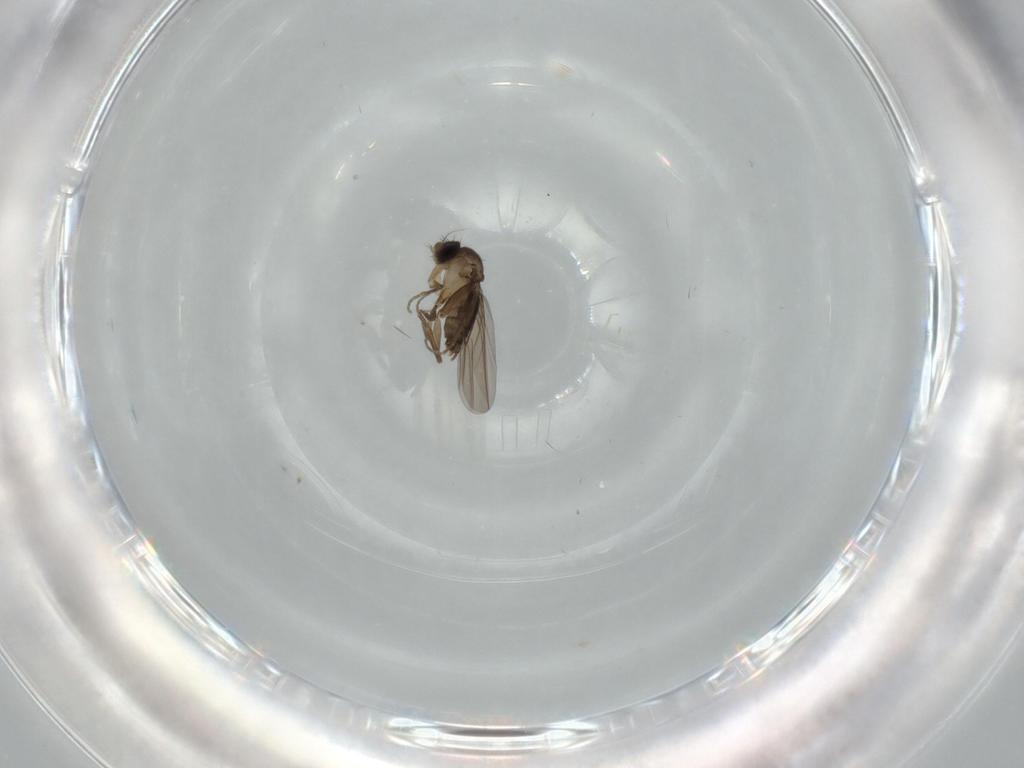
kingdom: Animalia
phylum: Arthropoda
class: Insecta
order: Diptera
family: Phoridae
